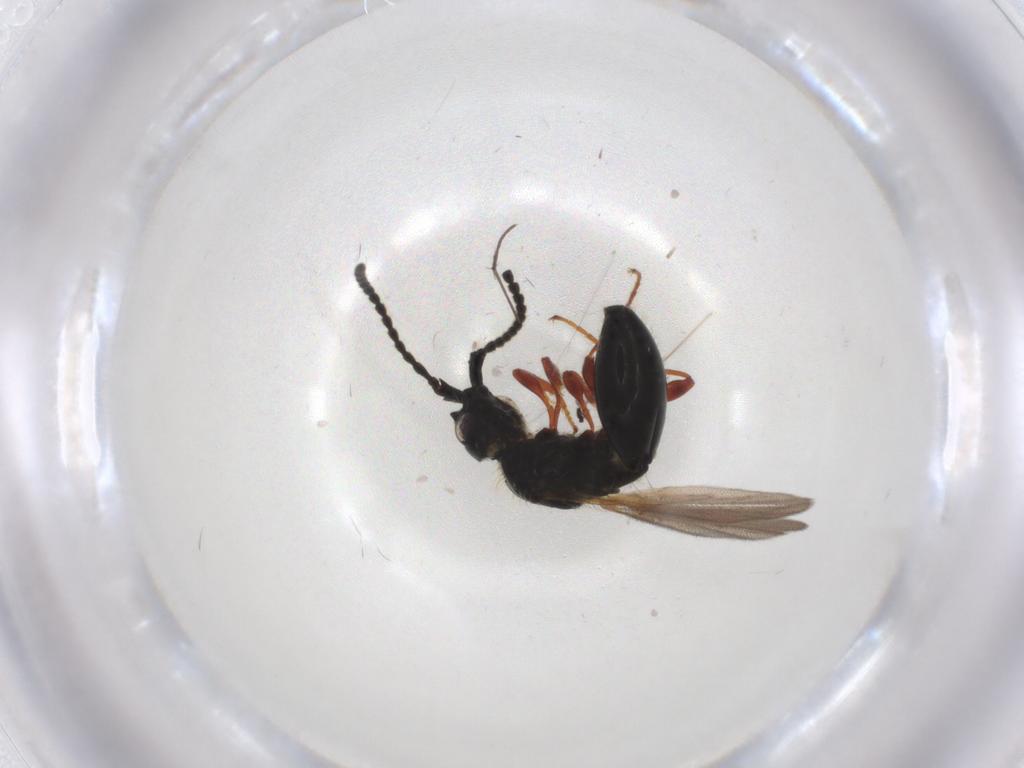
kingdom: Animalia
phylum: Arthropoda
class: Insecta
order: Hymenoptera
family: Diapriidae
